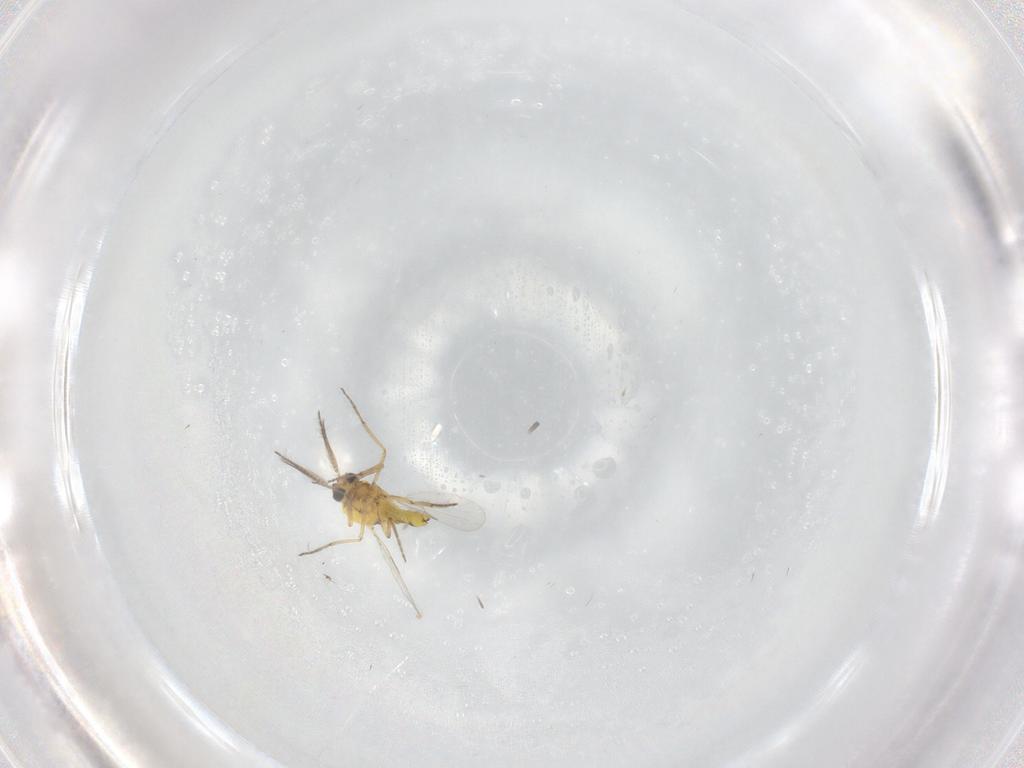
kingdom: Animalia
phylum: Arthropoda
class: Insecta
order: Diptera
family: Ceratopogonidae
